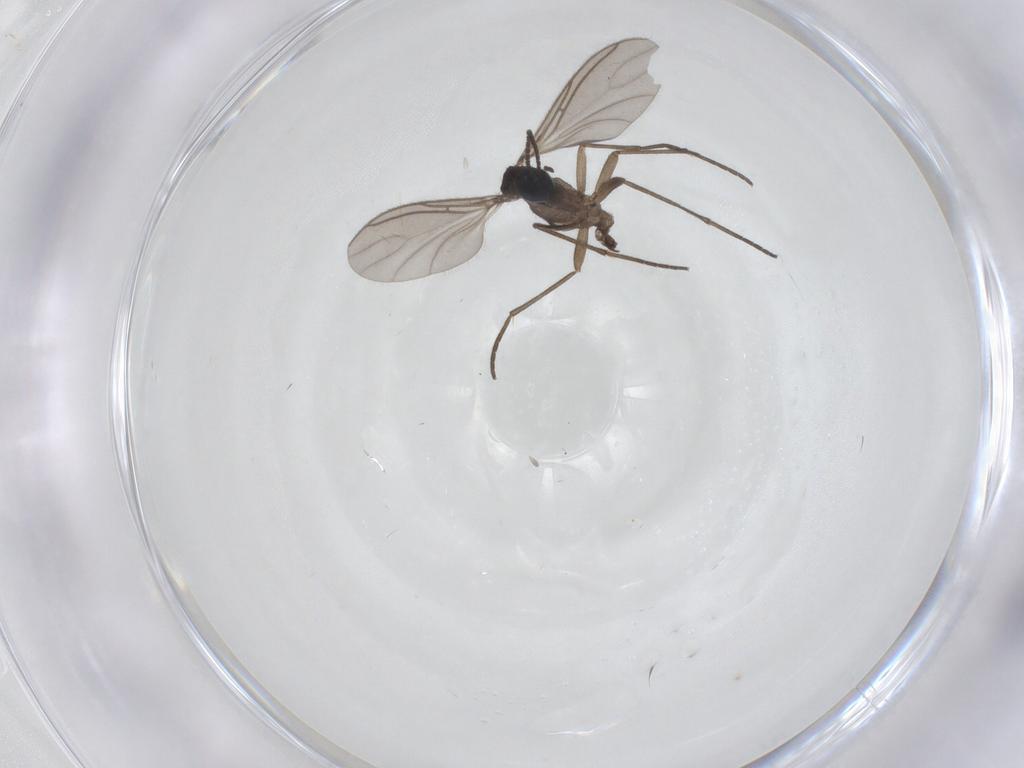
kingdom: Animalia
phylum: Arthropoda
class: Insecta
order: Diptera
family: Sciaridae
